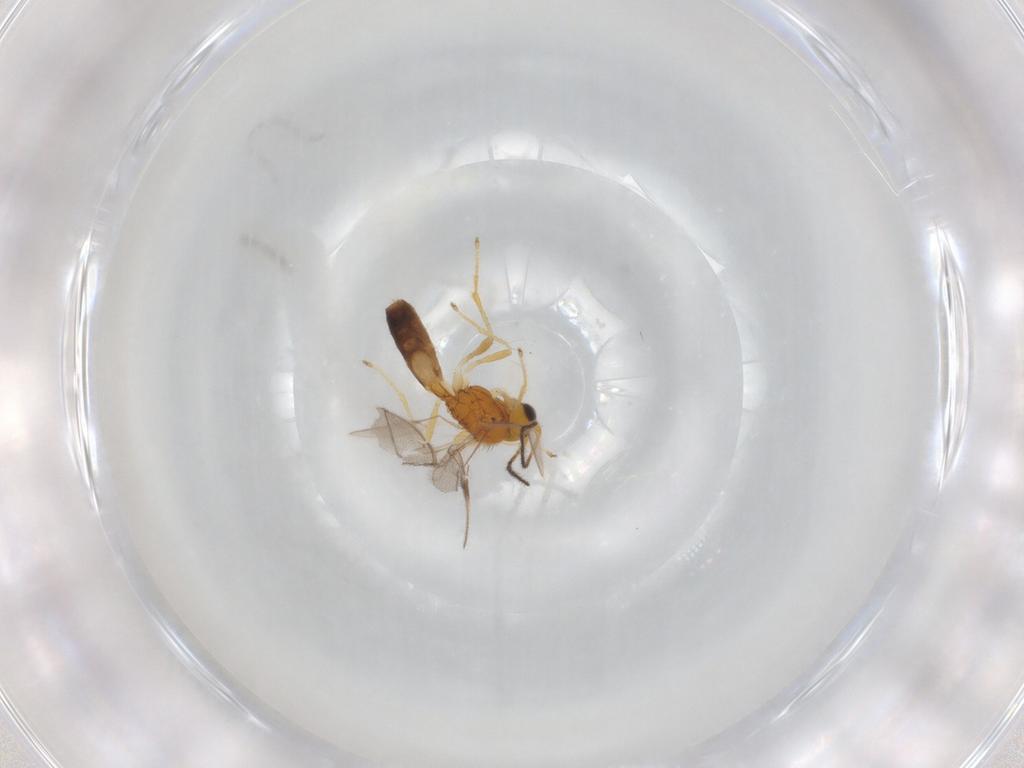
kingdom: Animalia
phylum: Arthropoda
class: Insecta
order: Hymenoptera
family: Braconidae
